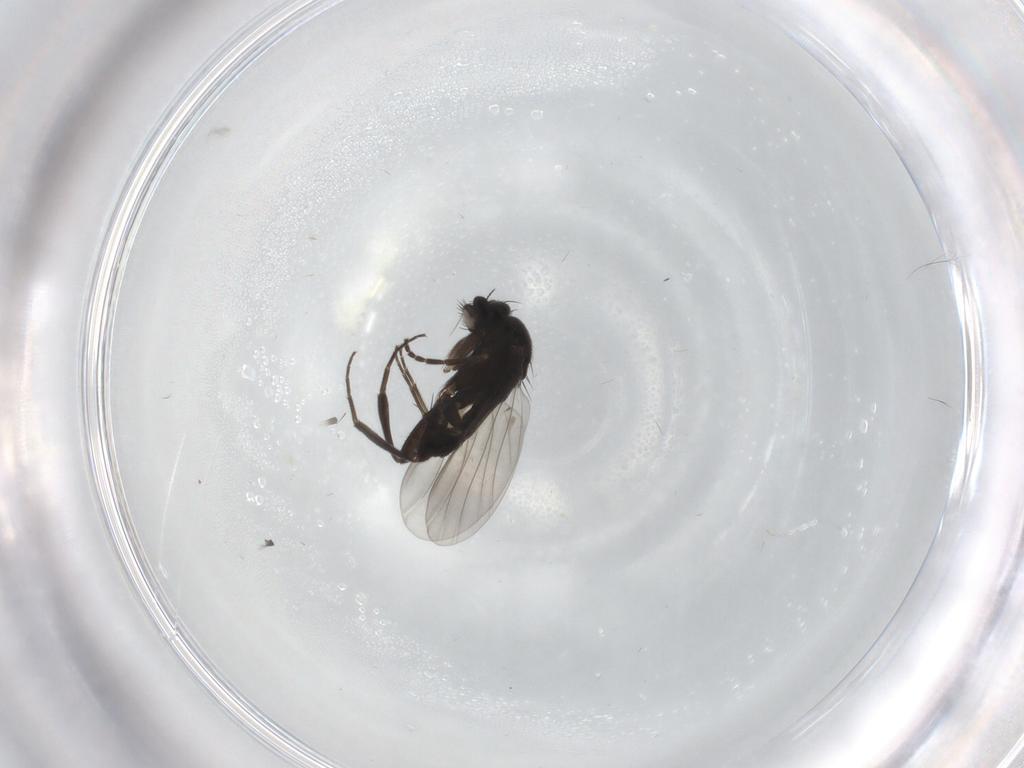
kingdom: Animalia
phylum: Arthropoda
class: Insecta
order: Diptera
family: Phoridae
